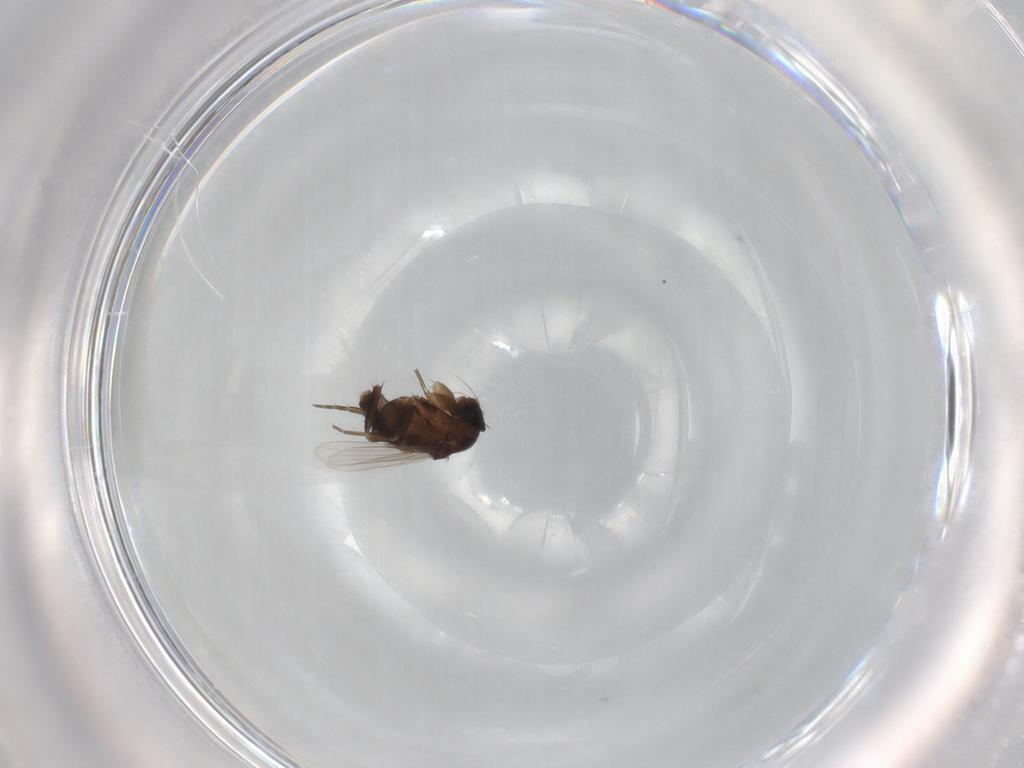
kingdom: Animalia
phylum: Arthropoda
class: Insecta
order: Diptera
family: Phoridae
